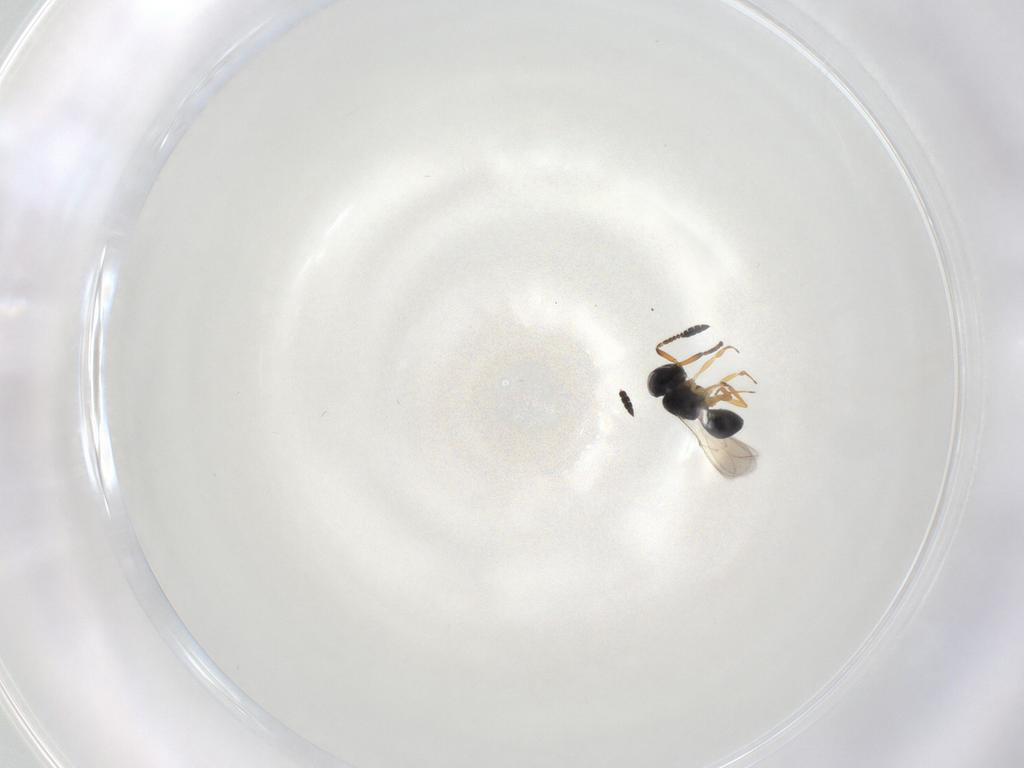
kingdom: Animalia
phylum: Arthropoda
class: Insecta
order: Hymenoptera
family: Scelionidae
